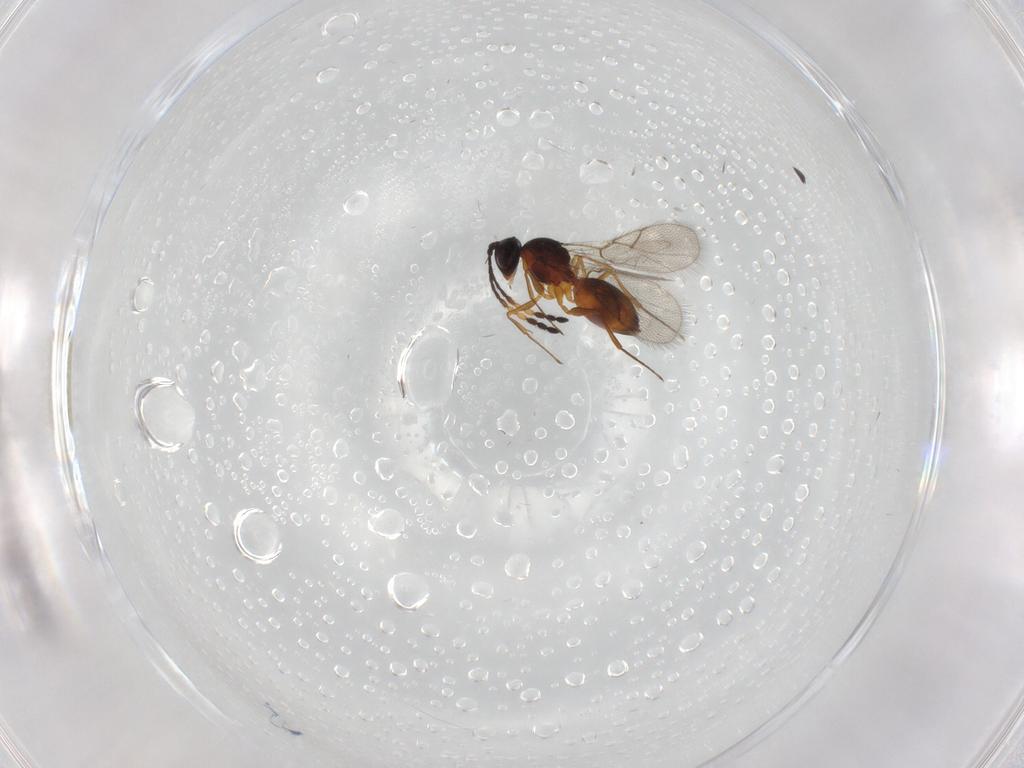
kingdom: Animalia
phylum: Arthropoda
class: Insecta
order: Hymenoptera
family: Figitidae
